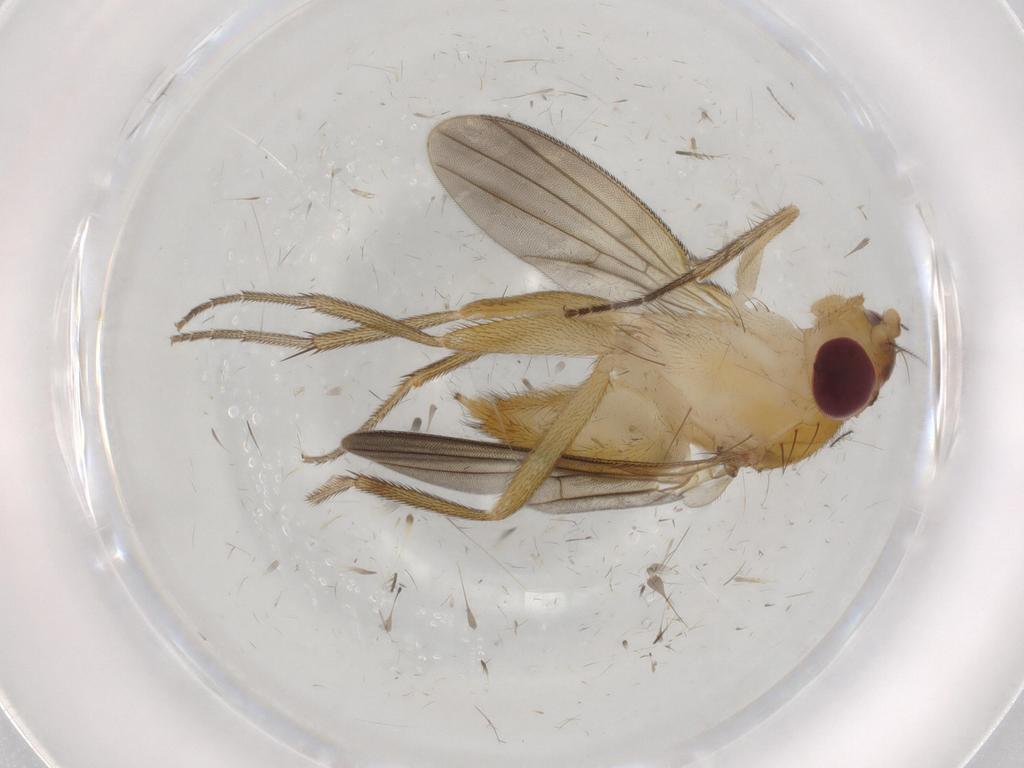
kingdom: Animalia
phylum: Arthropoda
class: Insecta
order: Diptera
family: Clusiidae
